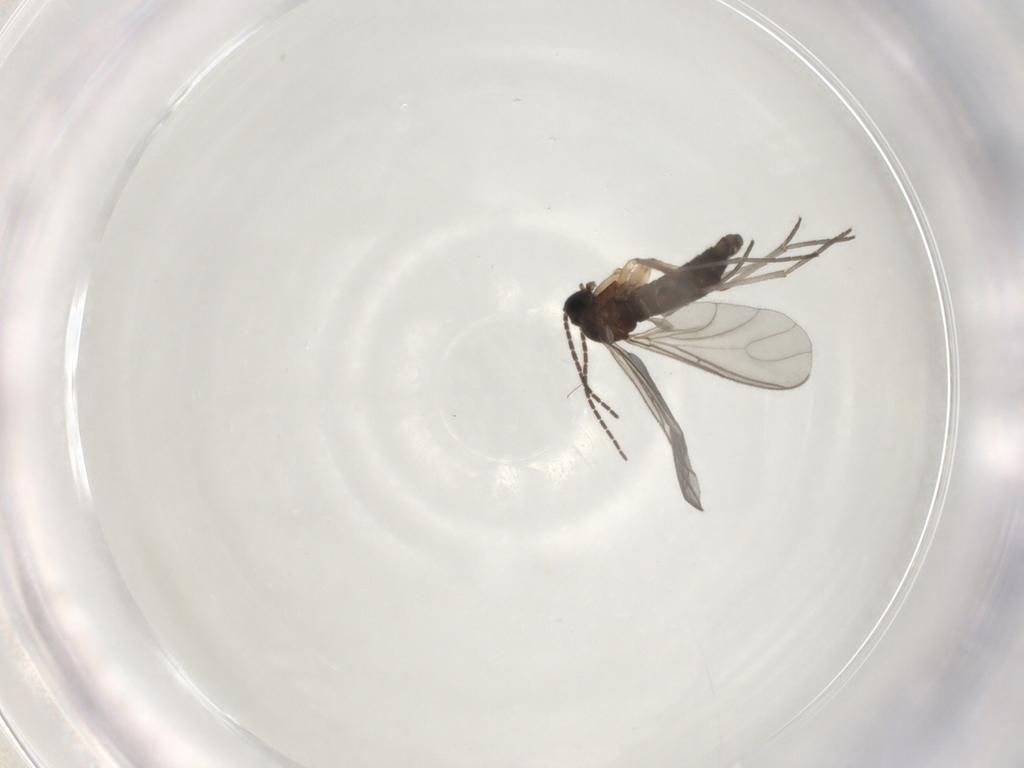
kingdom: Animalia
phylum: Arthropoda
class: Insecta
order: Diptera
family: Sciaridae
